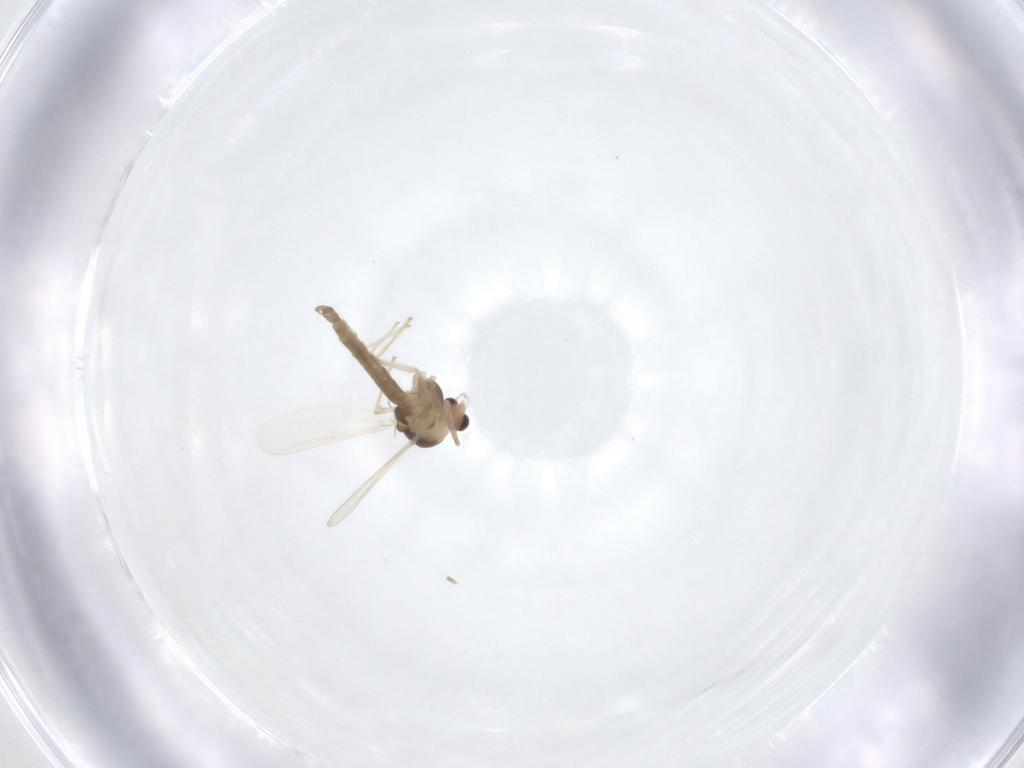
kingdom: Animalia
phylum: Arthropoda
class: Insecta
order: Diptera
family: Chironomidae
